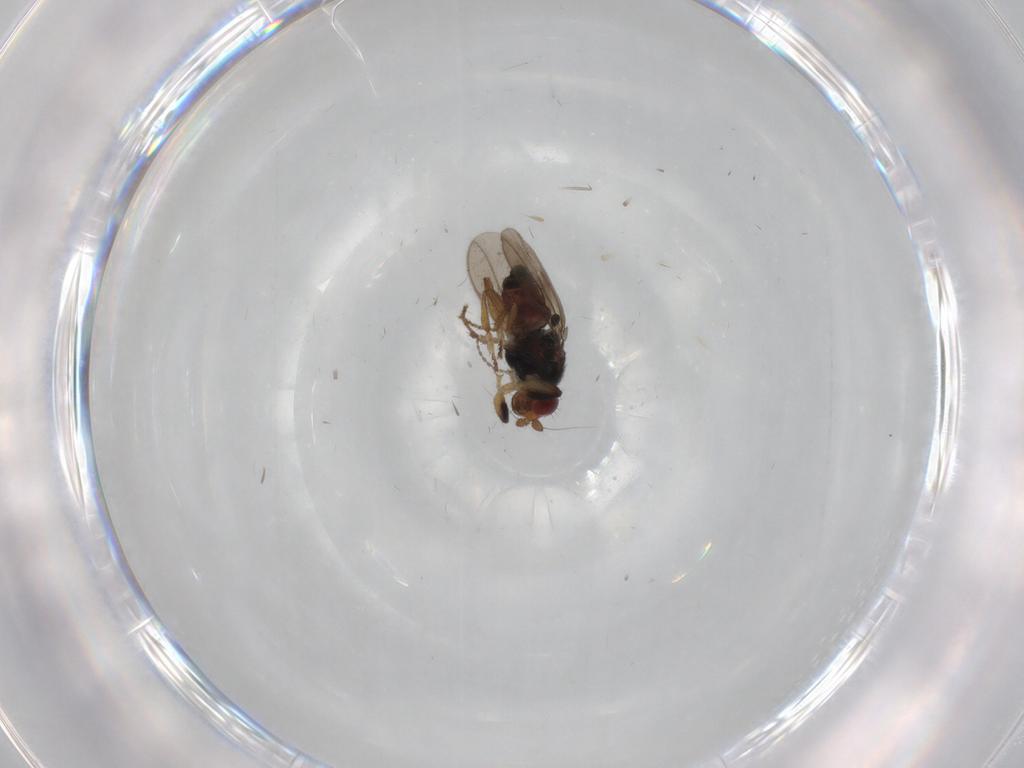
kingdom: Animalia
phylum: Arthropoda
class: Insecta
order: Diptera
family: Sphaeroceridae
